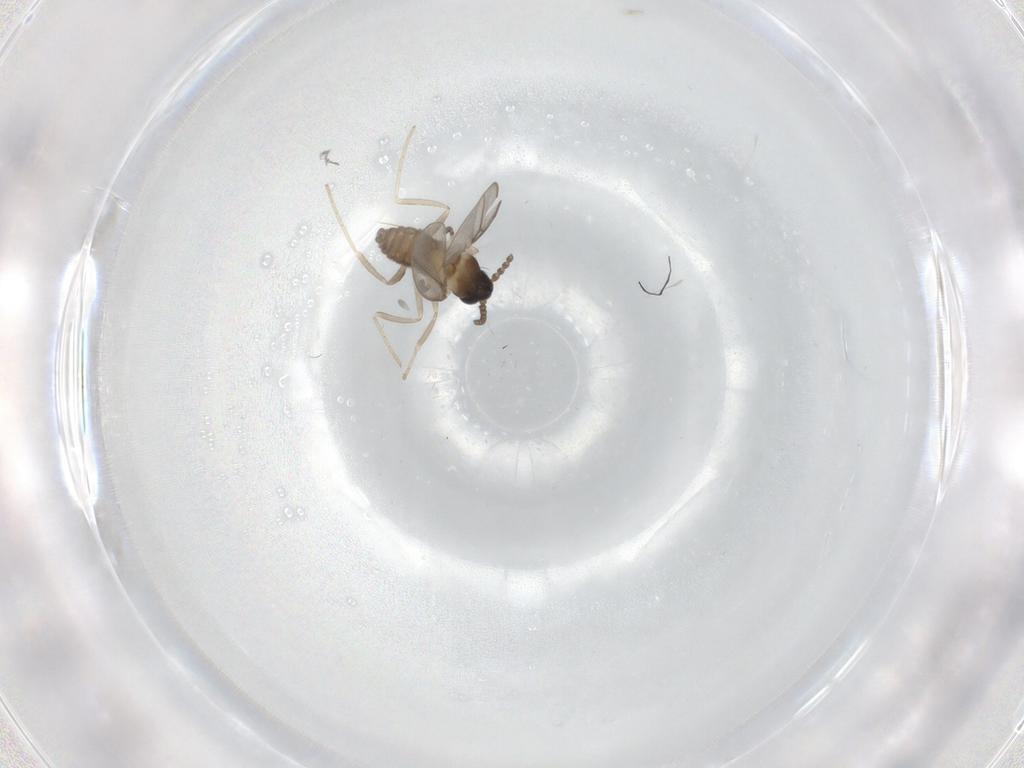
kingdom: Animalia
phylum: Arthropoda
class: Insecta
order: Diptera
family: Cecidomyiidae
